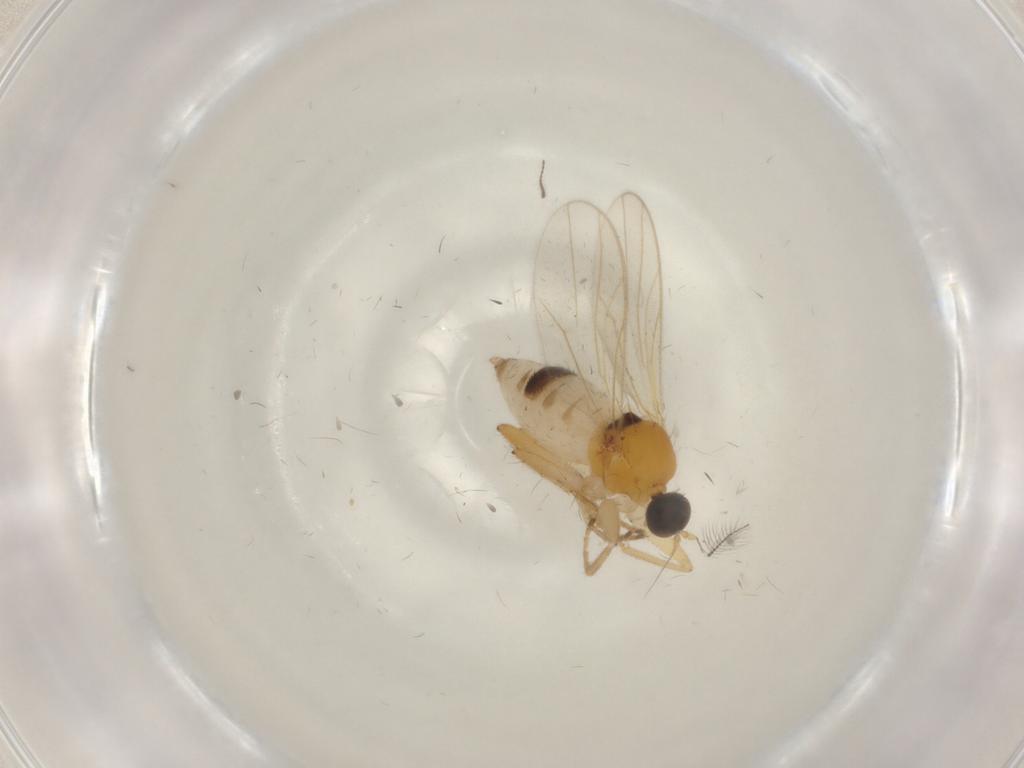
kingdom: Animalia
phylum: Arthropoda
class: Insecta
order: Diptera
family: Hybotidae
